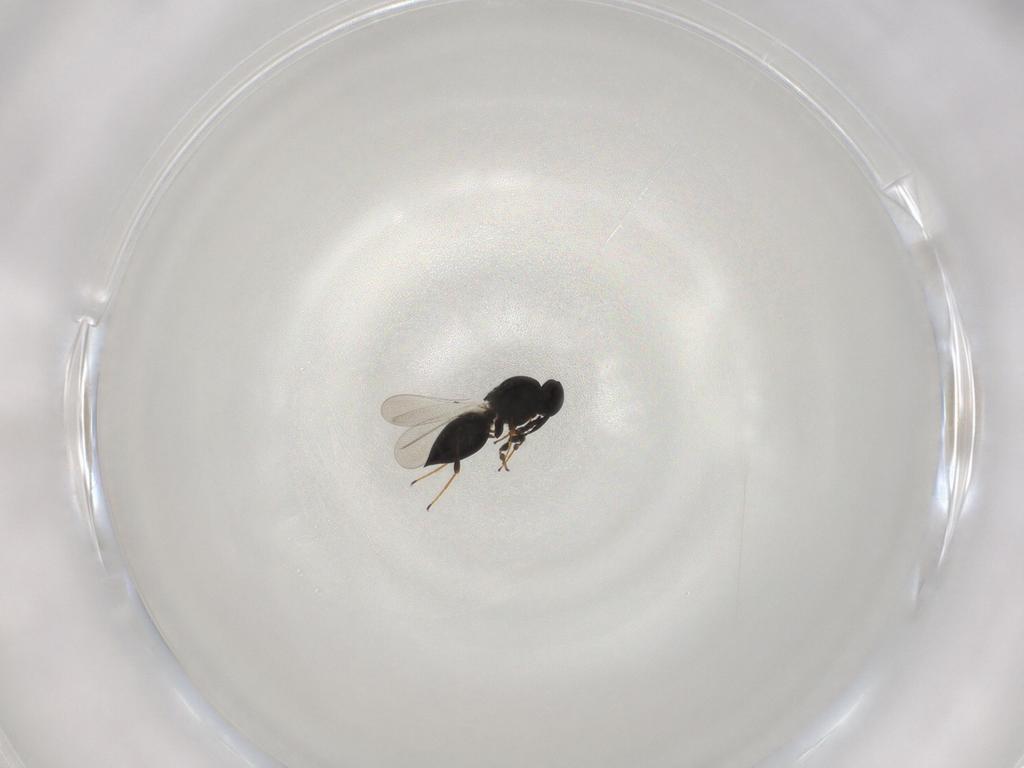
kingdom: Animalia
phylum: Arthropoda
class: Insecta
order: Hymenoptera
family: Platygastridae
